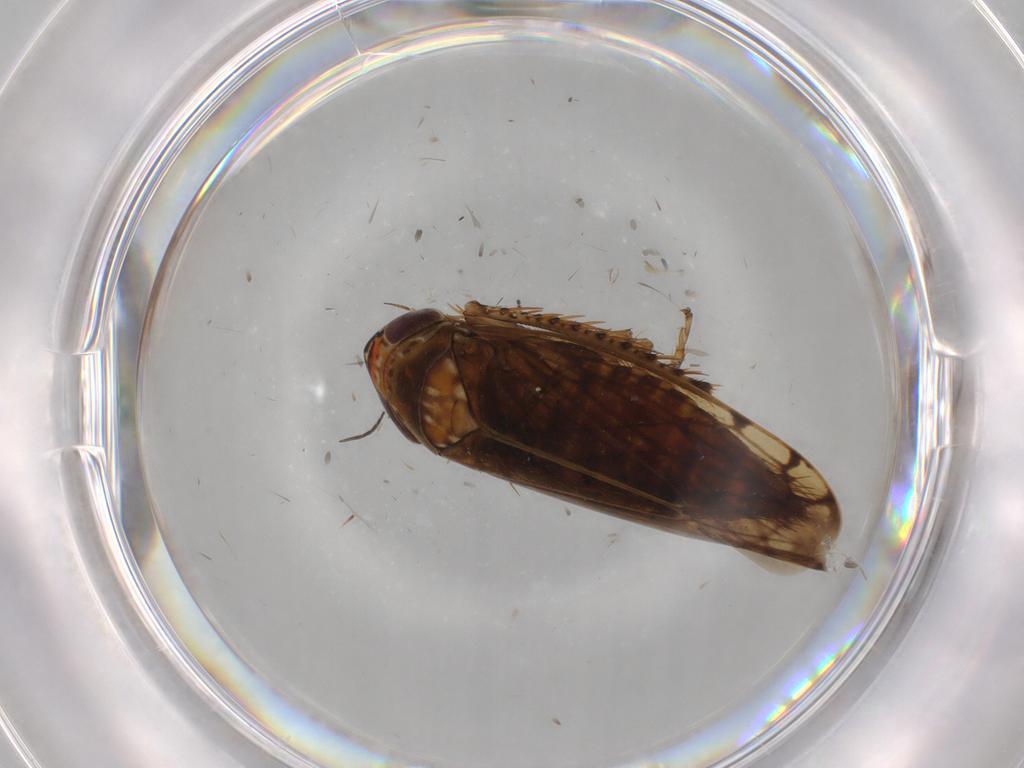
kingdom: Animalia
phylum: Arthropoda
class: Insecta
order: Hemiptera
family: Cicadellidae
